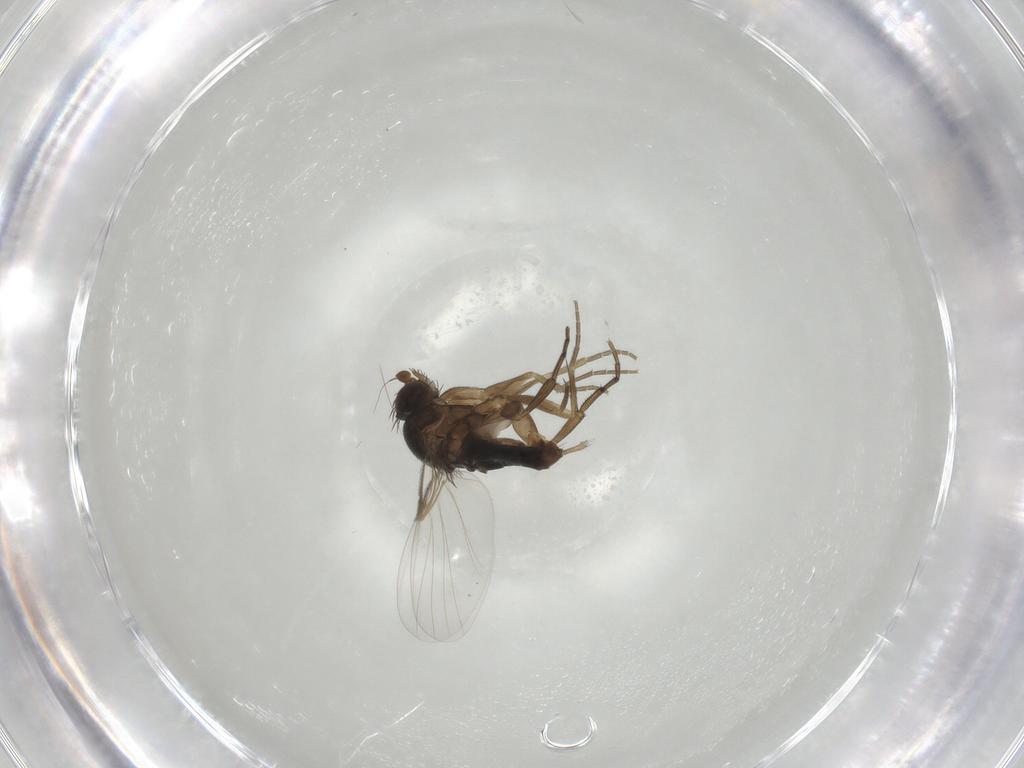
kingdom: Animalia
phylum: Arthropoda
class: Insecta
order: Diptera
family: Phoridae
